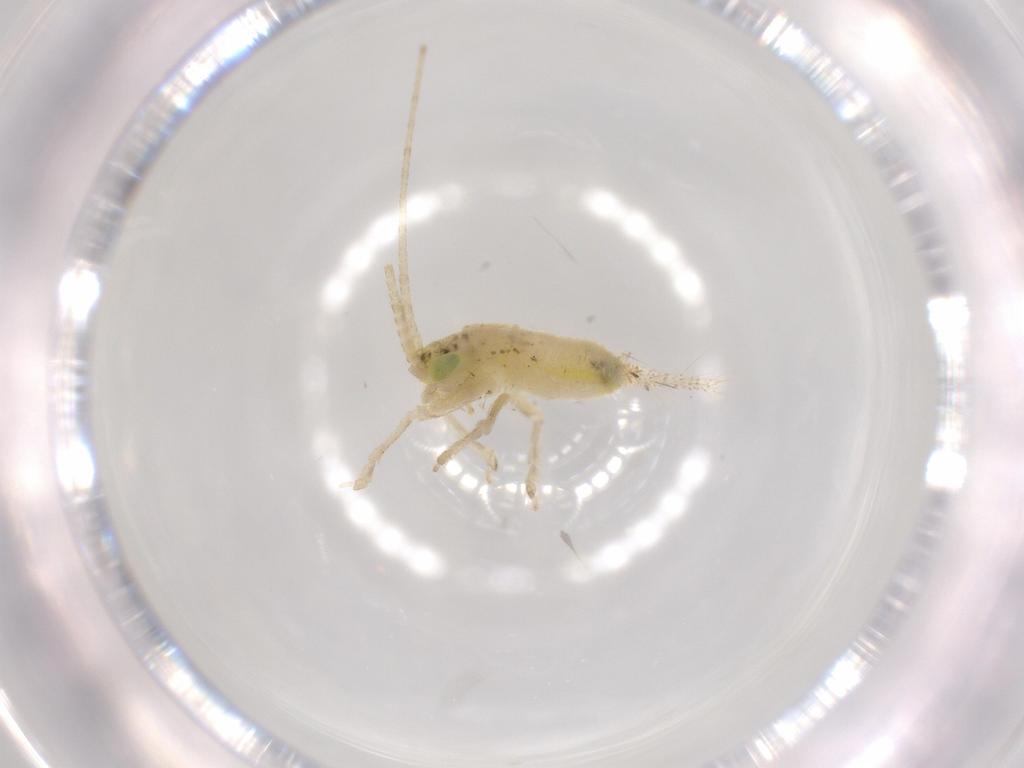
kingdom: Animalia
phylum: Arthropoda
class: Insecta
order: Orthoptera
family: Trigonidiidae
